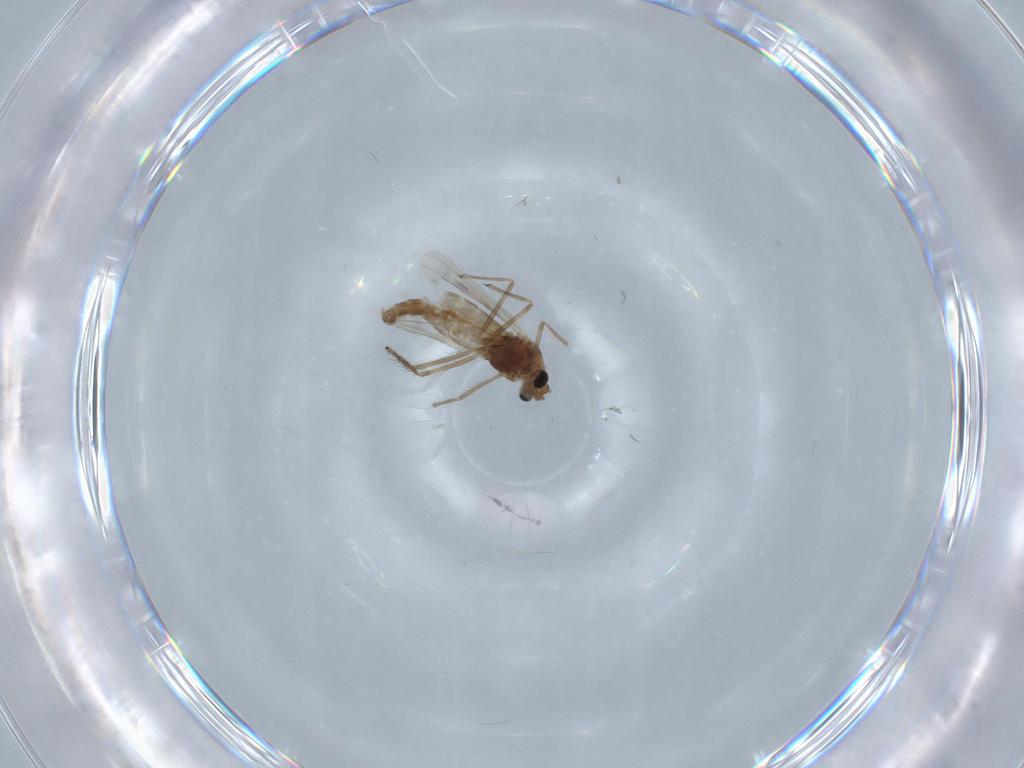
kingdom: Animalia
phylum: Arthropoda
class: Insecta
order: Diptera
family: Chironomidae
